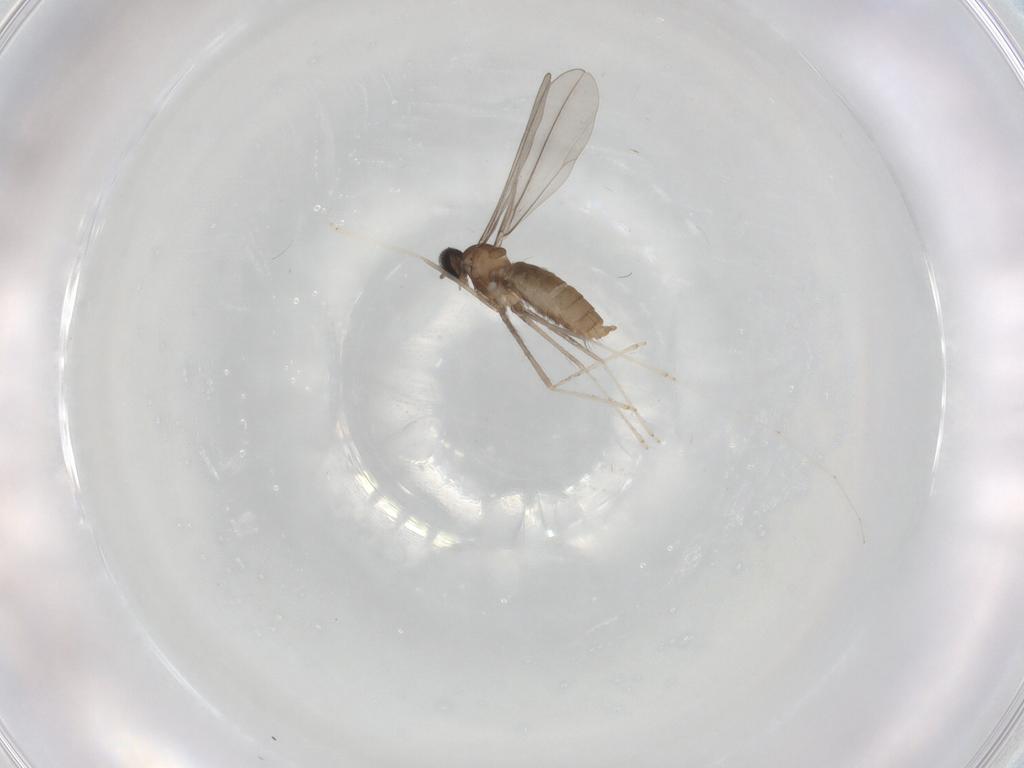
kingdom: Animalia
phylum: Arthropoda
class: Insecta
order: Diptera
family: Cecidomyiidae
